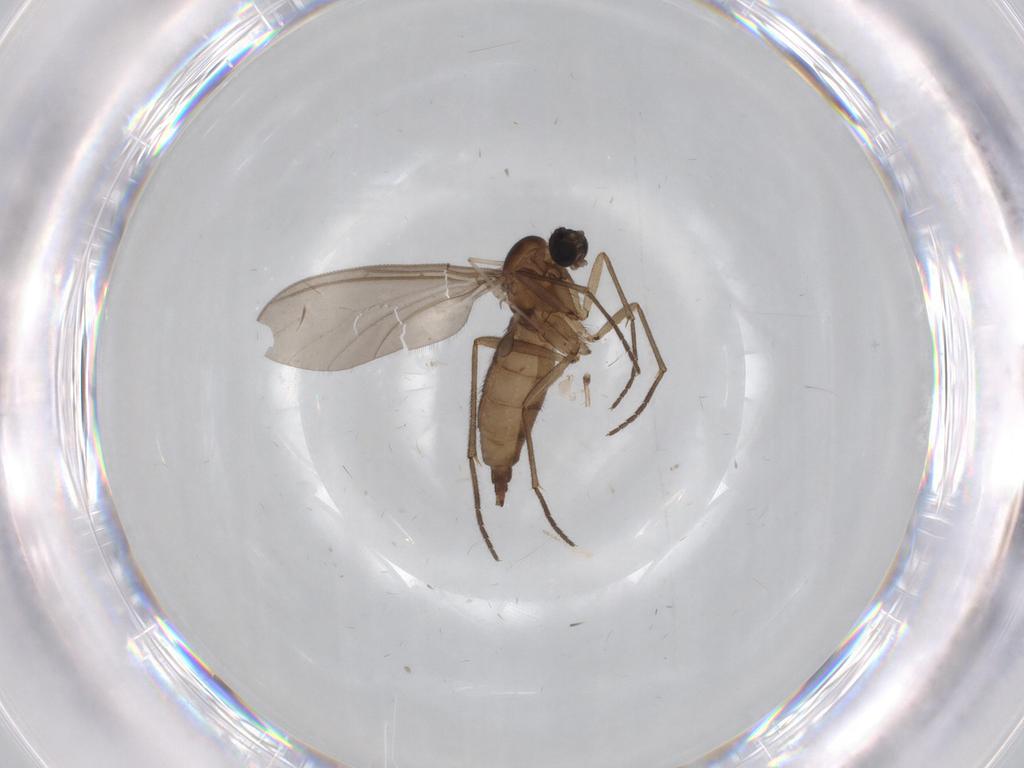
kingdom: Animalia
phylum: Arthropoda
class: Insecta
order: Diptera
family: Sciaridae
